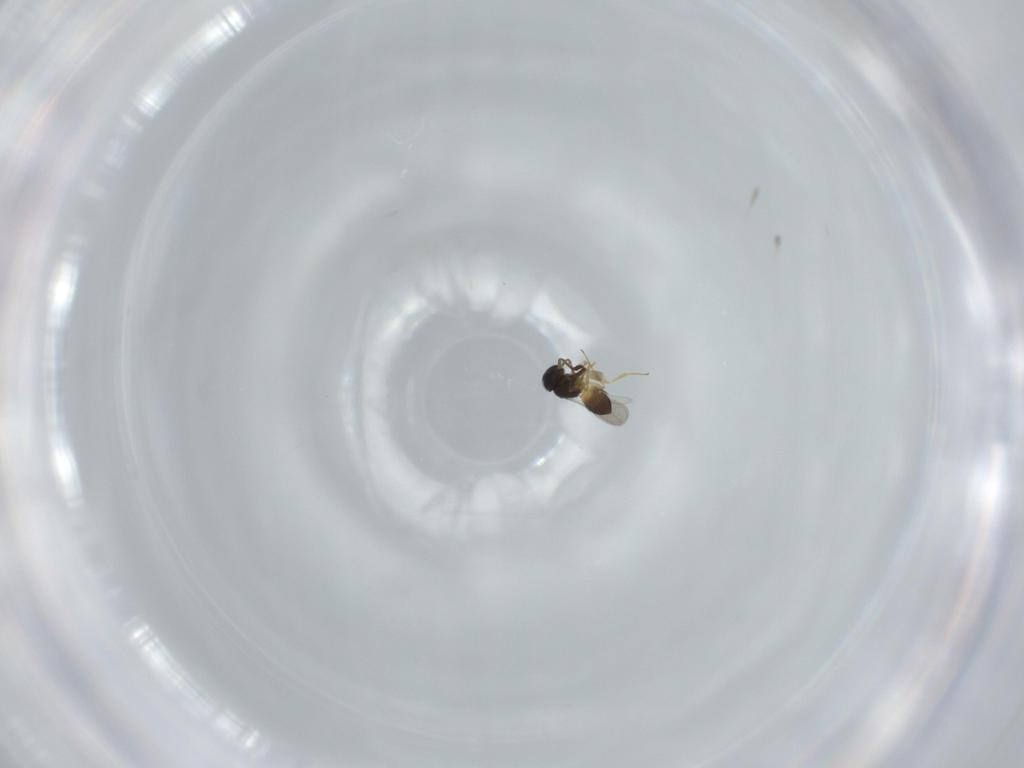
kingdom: Animalia
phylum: Arthropoda
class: Insecta
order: Hymenoptera
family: Scelionidae
